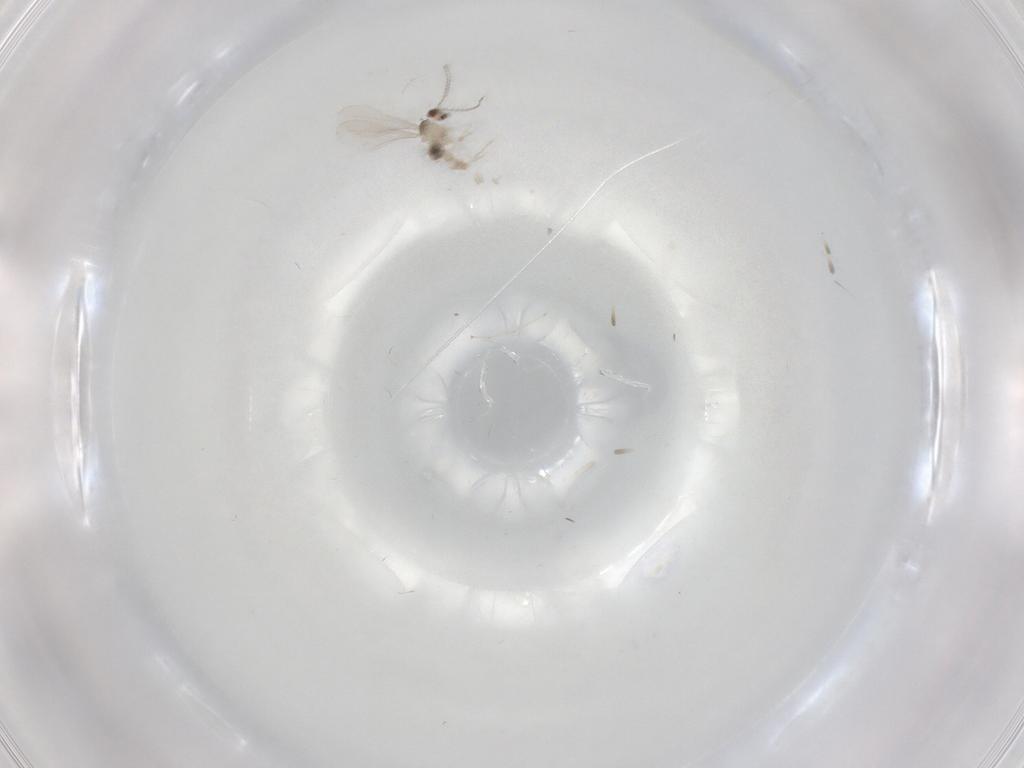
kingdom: Animalia
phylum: Arthropoda
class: Insecta
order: Diptera
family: Cecidomyiidae
